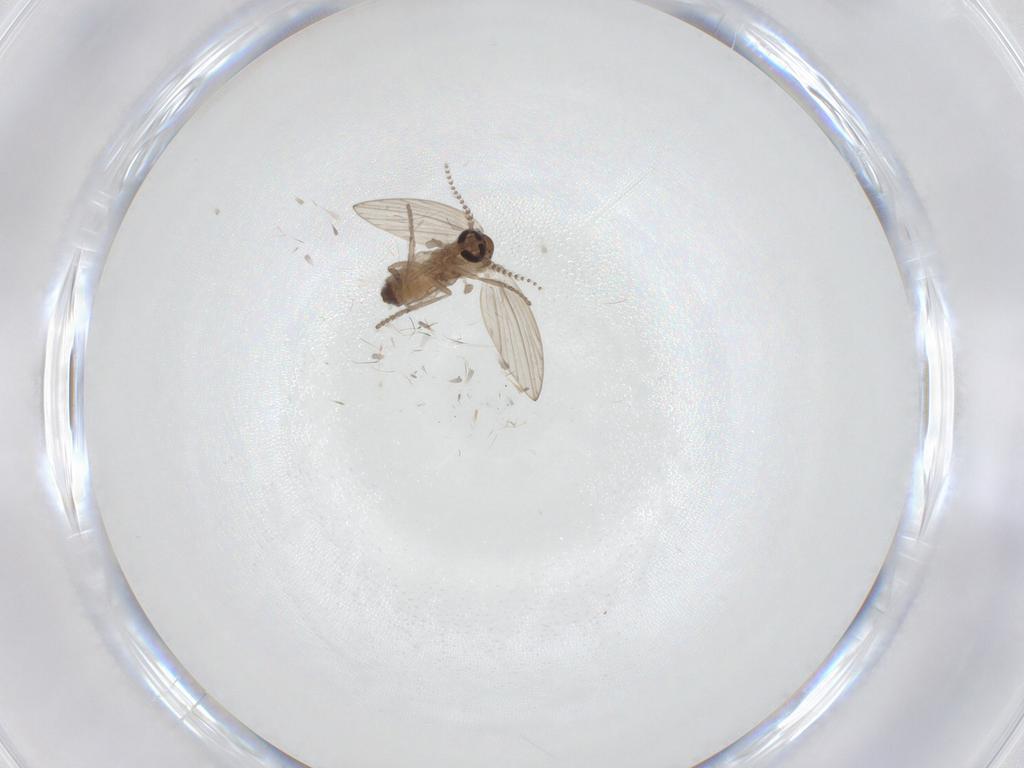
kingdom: Animalia
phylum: Arthropoda
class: Insecta
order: Diptera
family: Psychodidae
